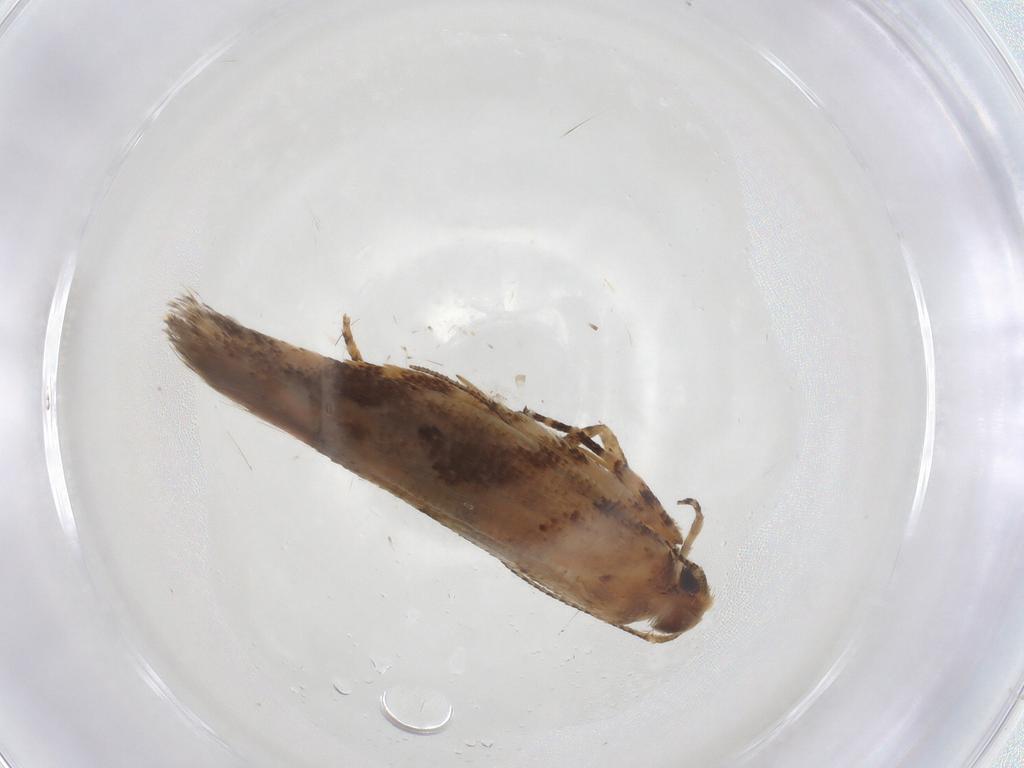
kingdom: Animalia
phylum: Arthropoda
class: Insecta
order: Lepidoptera
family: Gelechiidae
